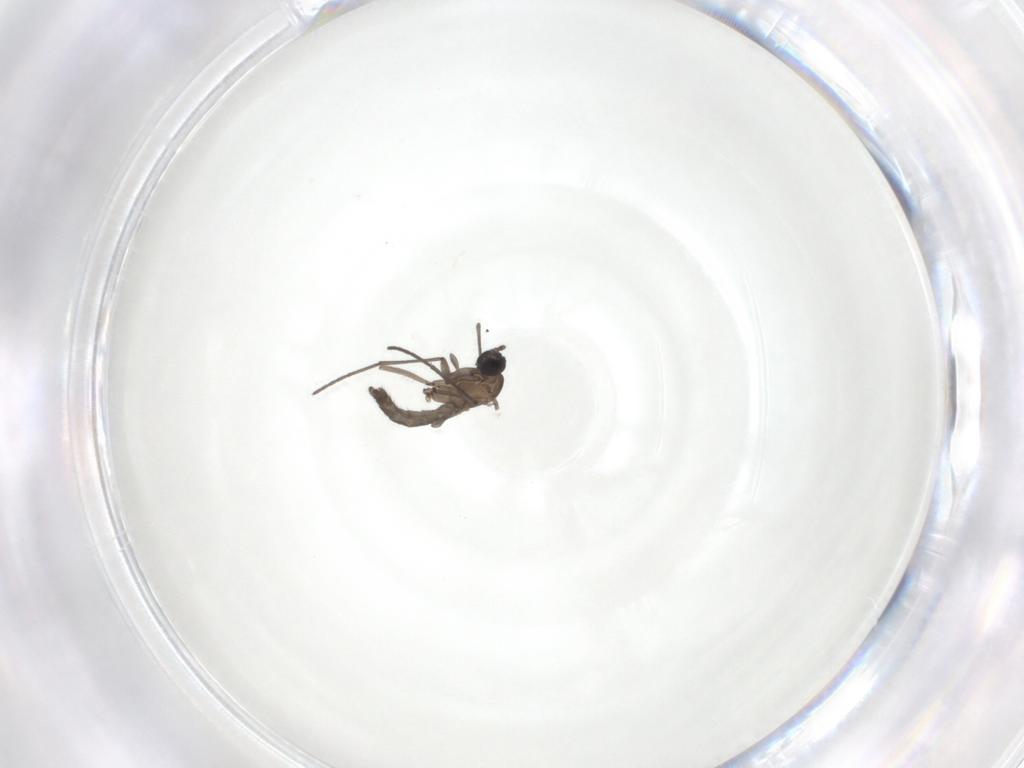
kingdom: Animalia
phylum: Arthropoda
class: Insecta
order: Diptera
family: Sciaridae
